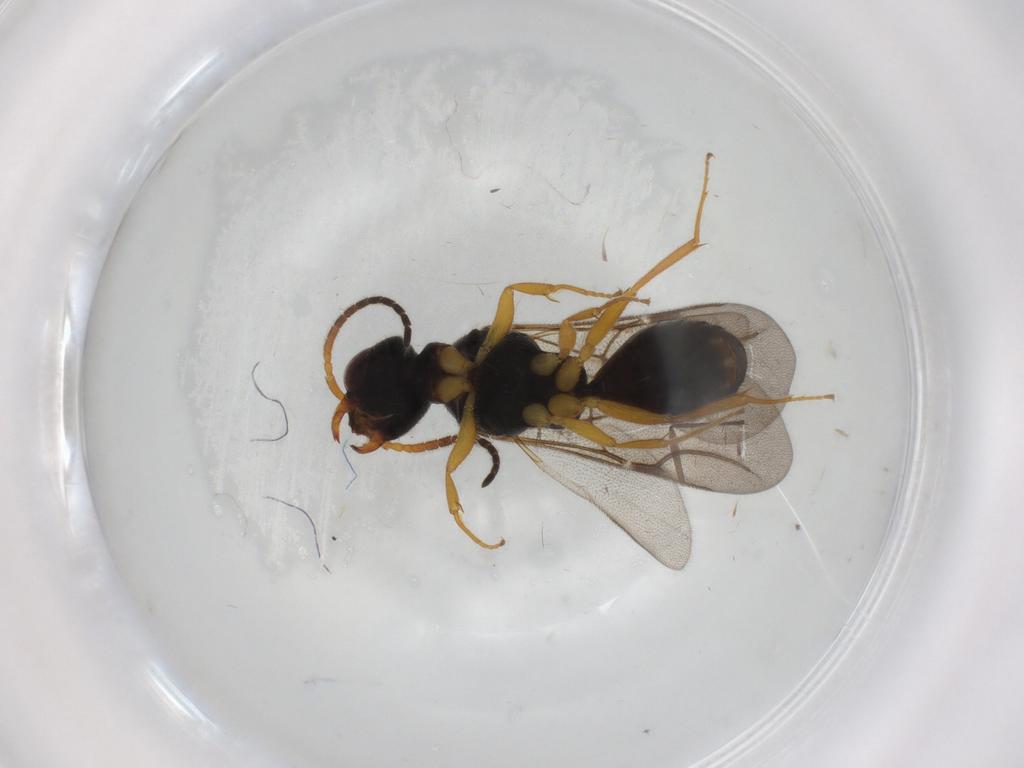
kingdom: Animalia
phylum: Arthropoda
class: Insecta
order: Hymenoptera
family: Bethylidae
